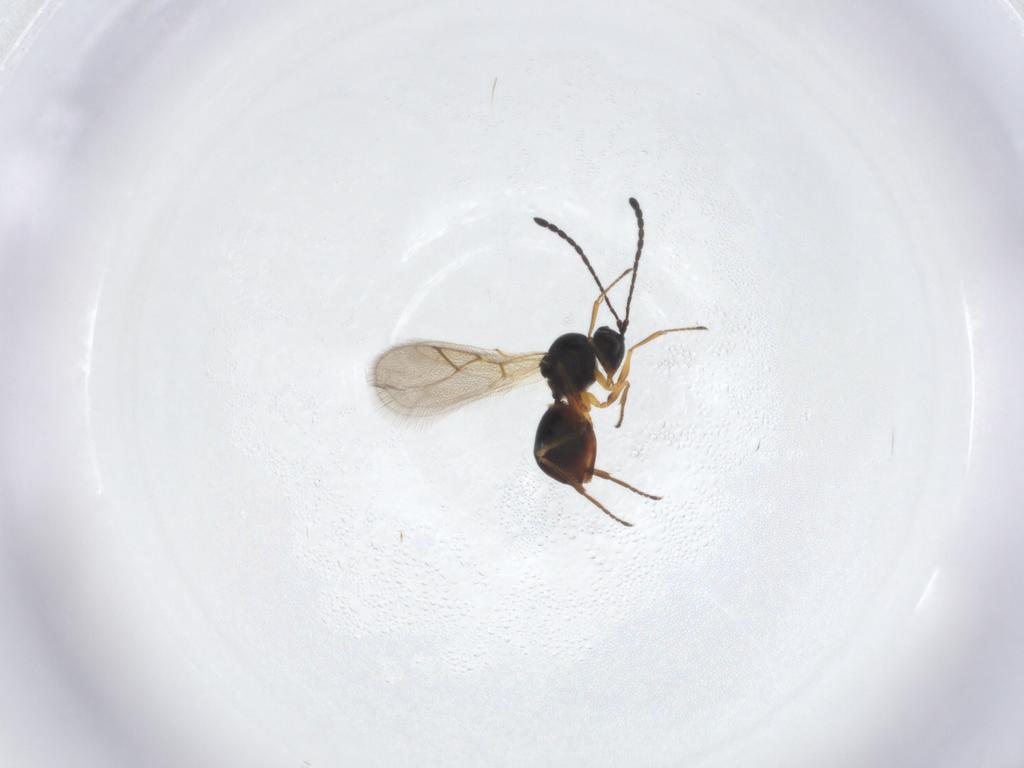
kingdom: Animalia
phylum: Arthropoda
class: Insecta
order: Hymenoptera
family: Figitidae
